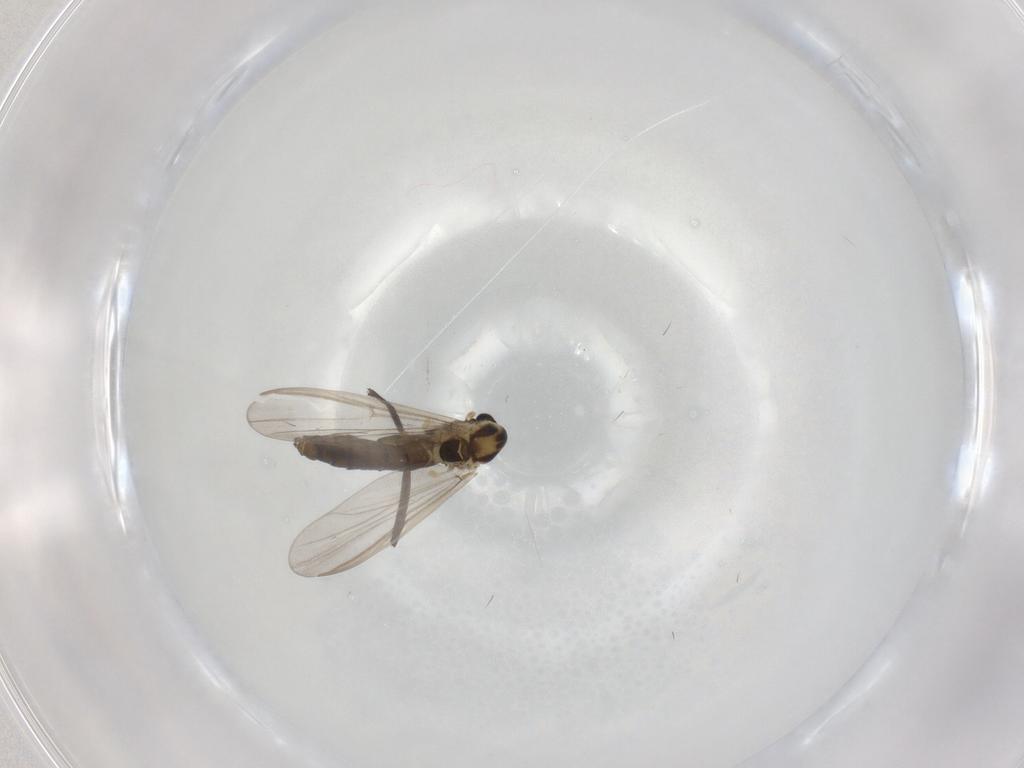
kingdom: Animalia
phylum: Arthropoda
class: Insecta
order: Diptera
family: Chironomidae
